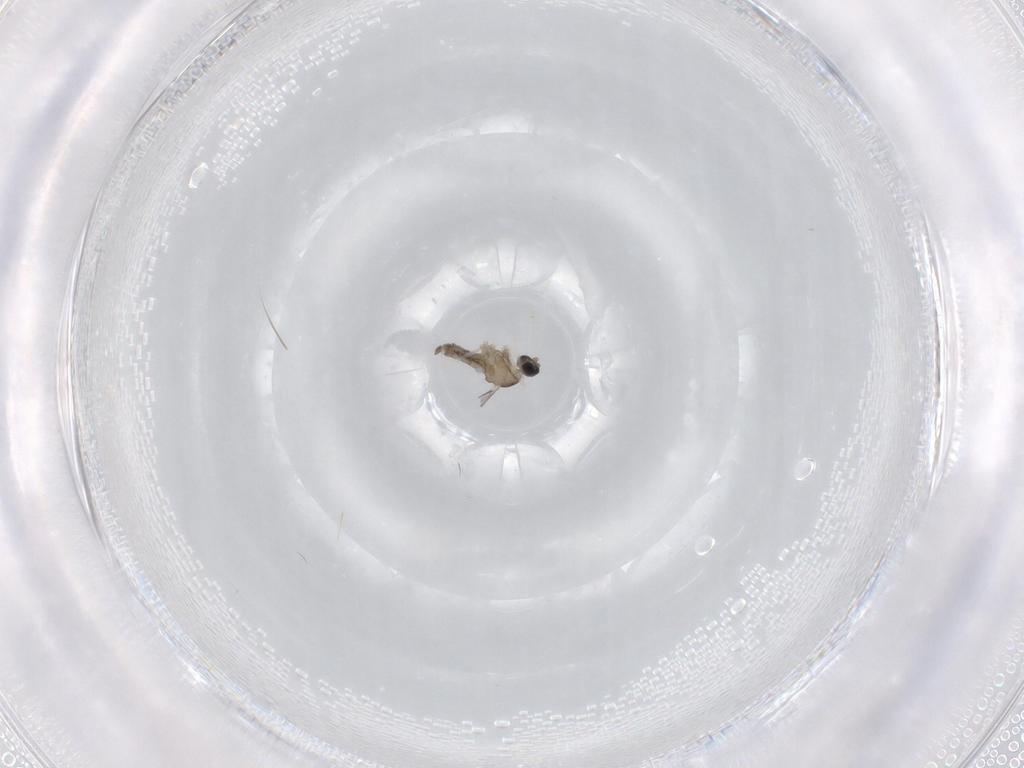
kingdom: Animalia
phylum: Arthropoda
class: Insecta
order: Diptera
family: Cecidomyiidae
